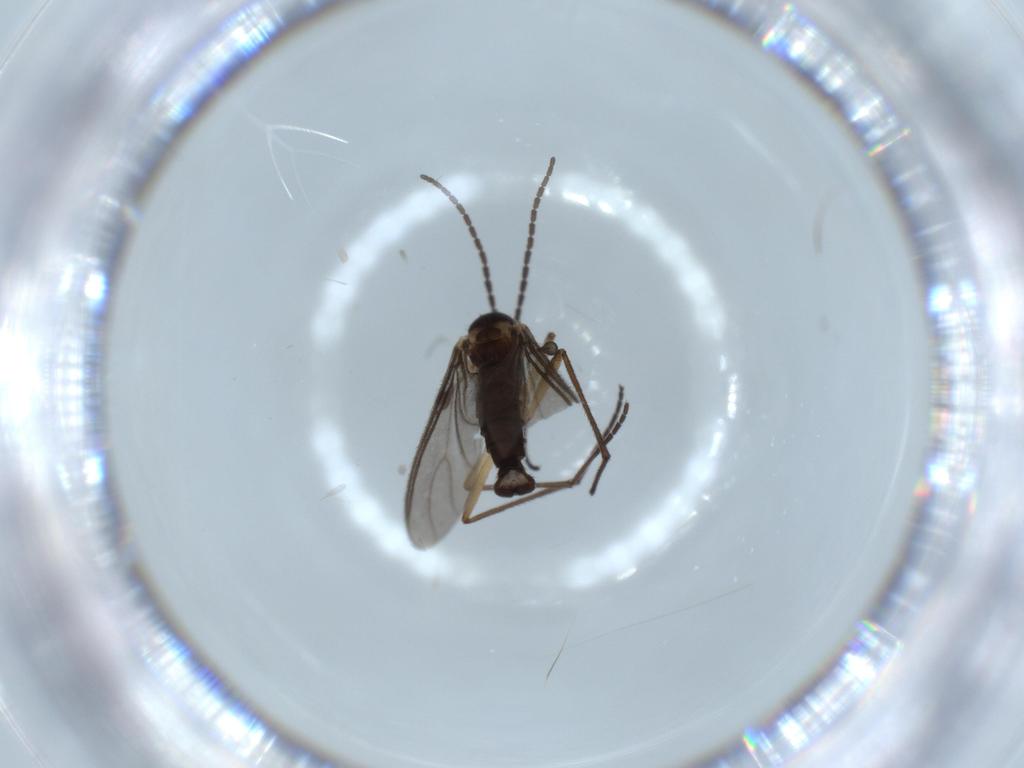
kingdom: Animalia
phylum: Arthropoda
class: Insecta
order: Diptera
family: Sciaridae
